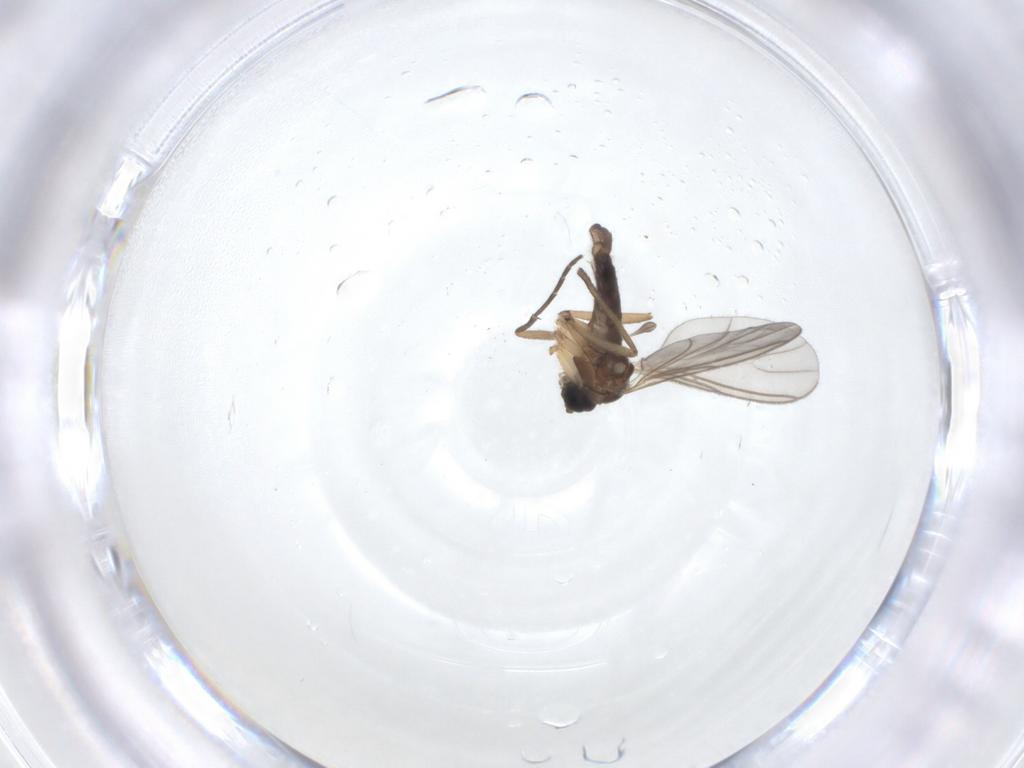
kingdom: Animalia
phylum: Arthropoda
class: Insecta
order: Diptera
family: Sciaridae
